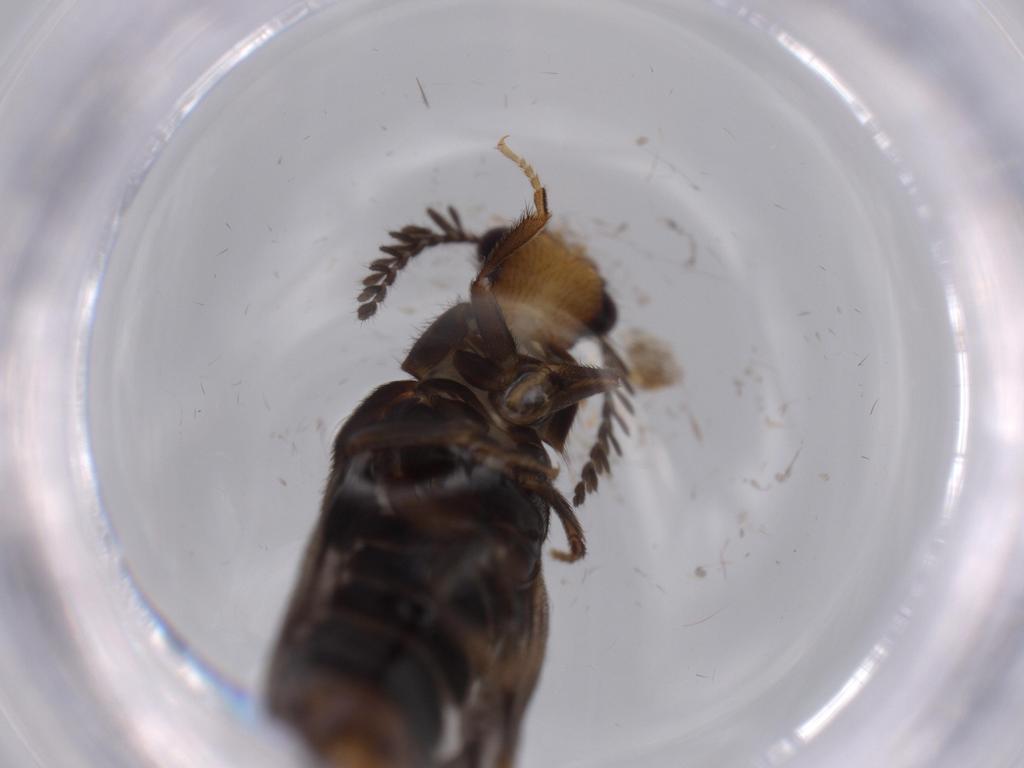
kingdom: Animalia
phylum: Arthropoda
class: Insecta
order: Coleoptera
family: Phengodidae
